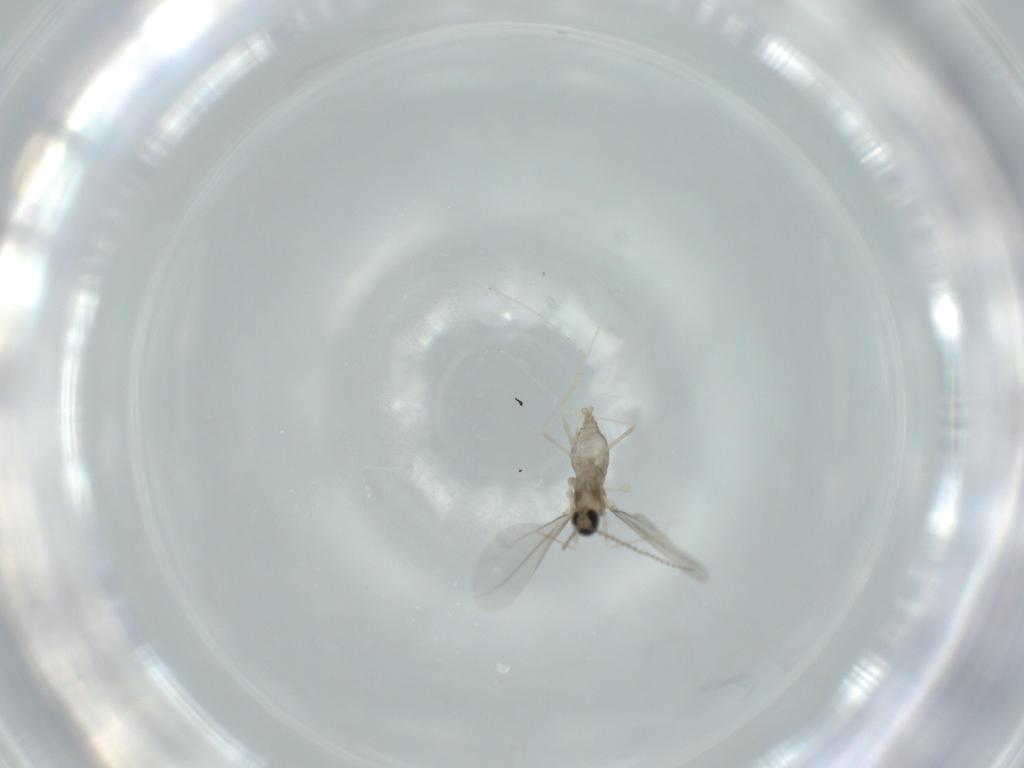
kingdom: Animalia
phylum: Arthropoda
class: Insecta
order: Diptera
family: Cecidomyiidae
